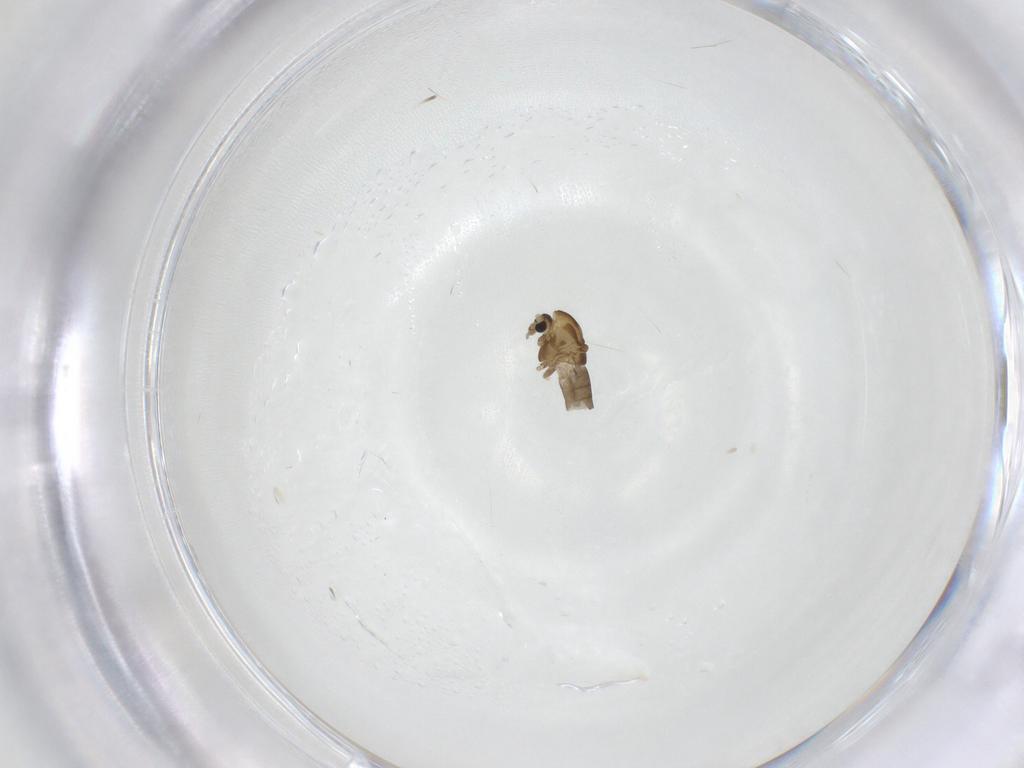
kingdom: Animalia
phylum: Arthropoda
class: Insecta
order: Diptera
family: Chironomidae
